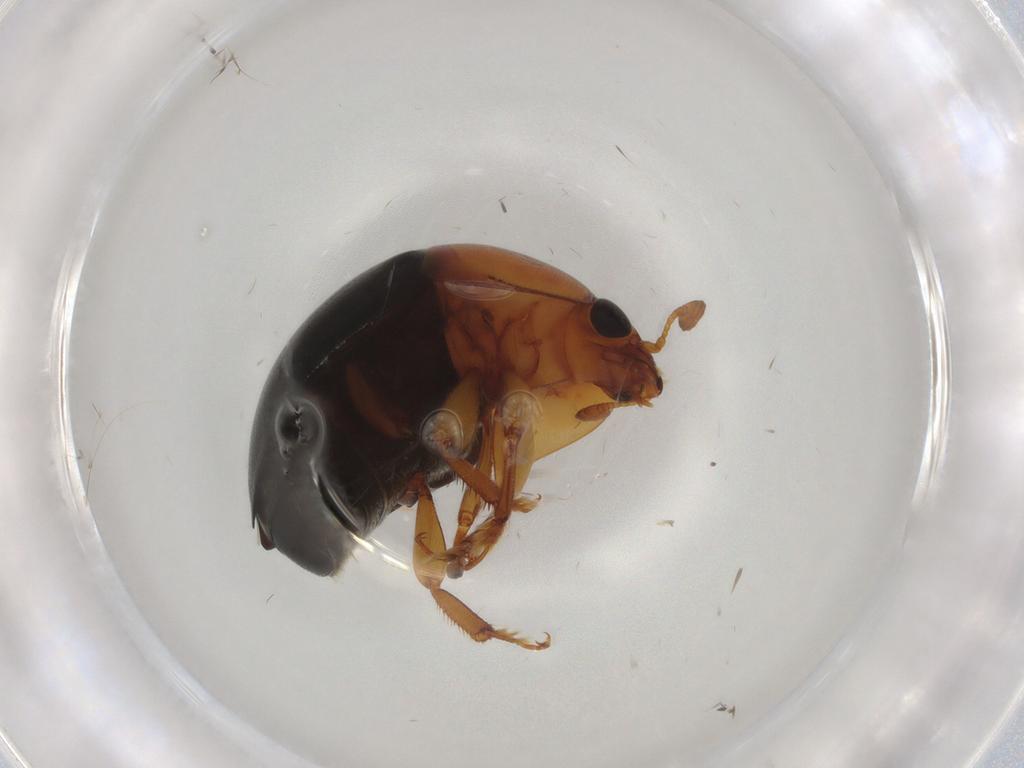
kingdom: Animalia
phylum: Arthropoda
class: Insecta
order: Coleoptera
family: Nitidulidae
